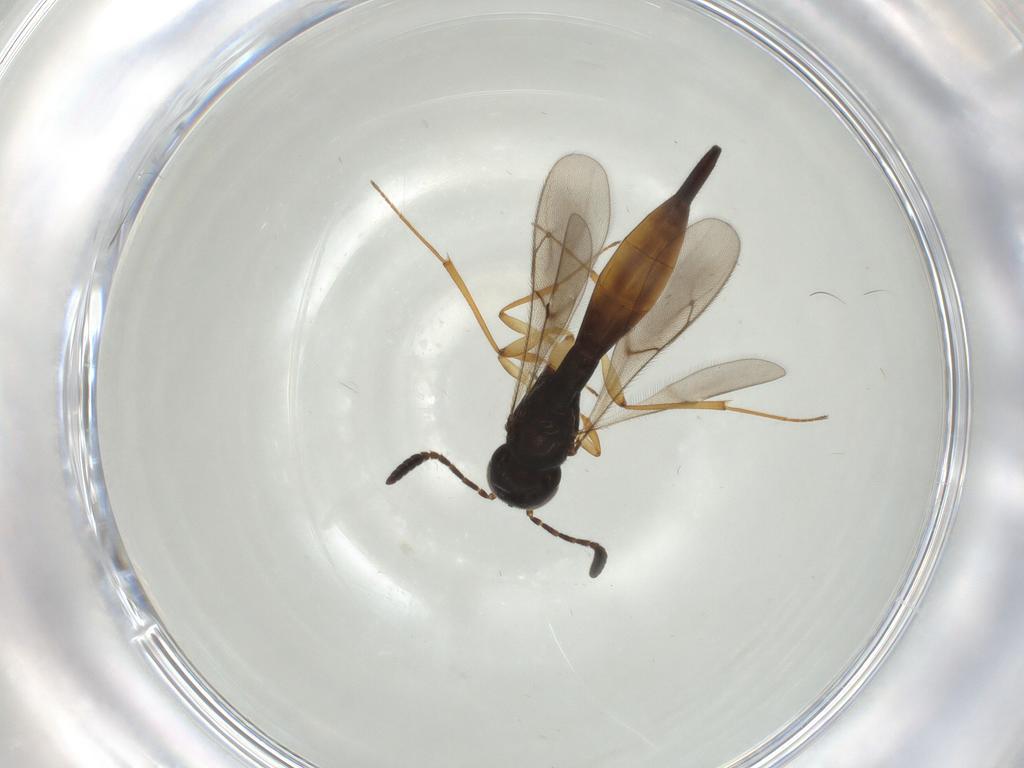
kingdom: Animalia
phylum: Arthropoda
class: Insecta
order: Hymenoptera
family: Scelionidae
